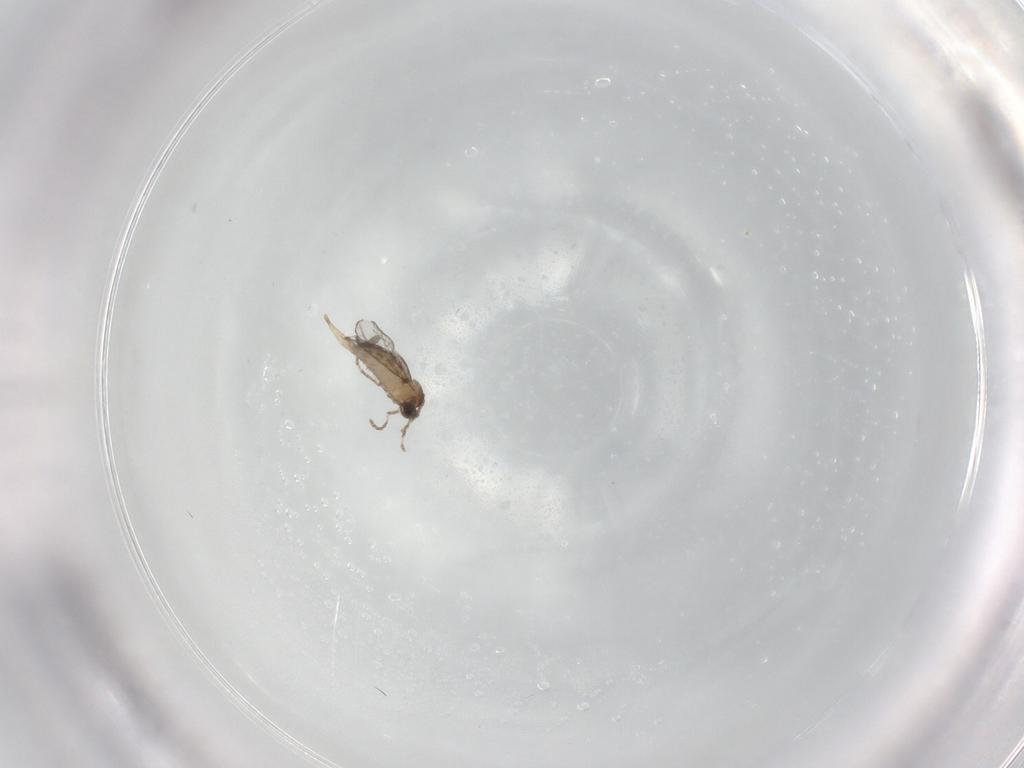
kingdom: Animalia
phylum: Arthropoda
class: Insecta
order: Diptera
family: Cecidomyiidae
